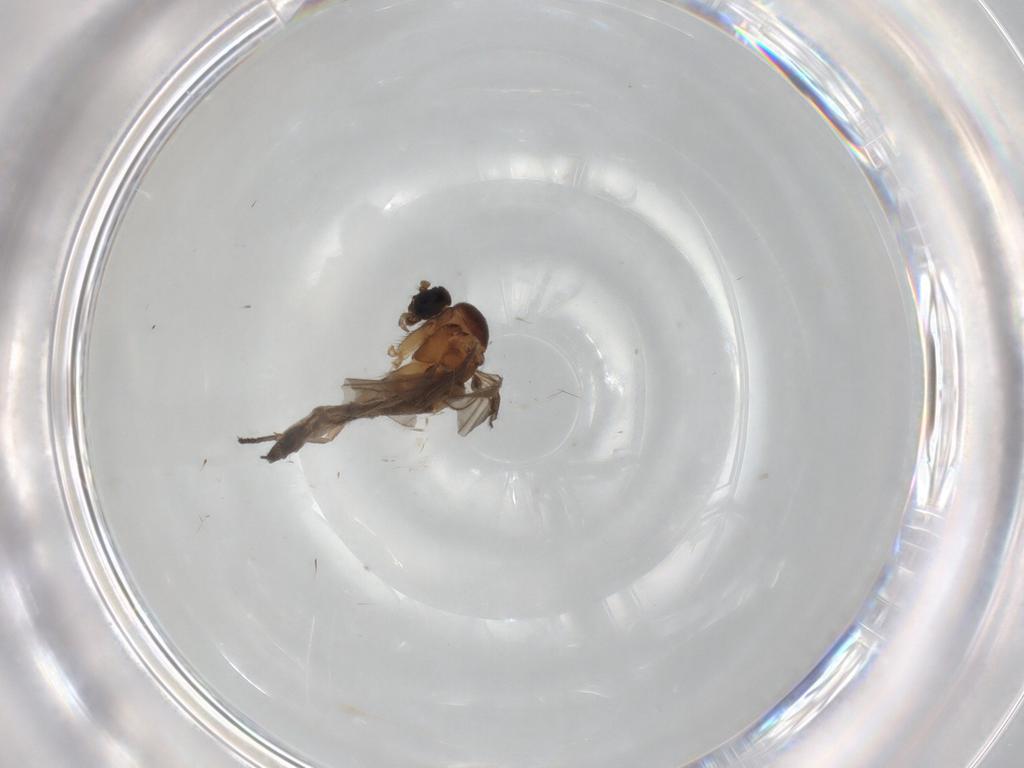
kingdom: Animalia
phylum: Arthropoda
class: Insecta
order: Diptera
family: Sciaridae
